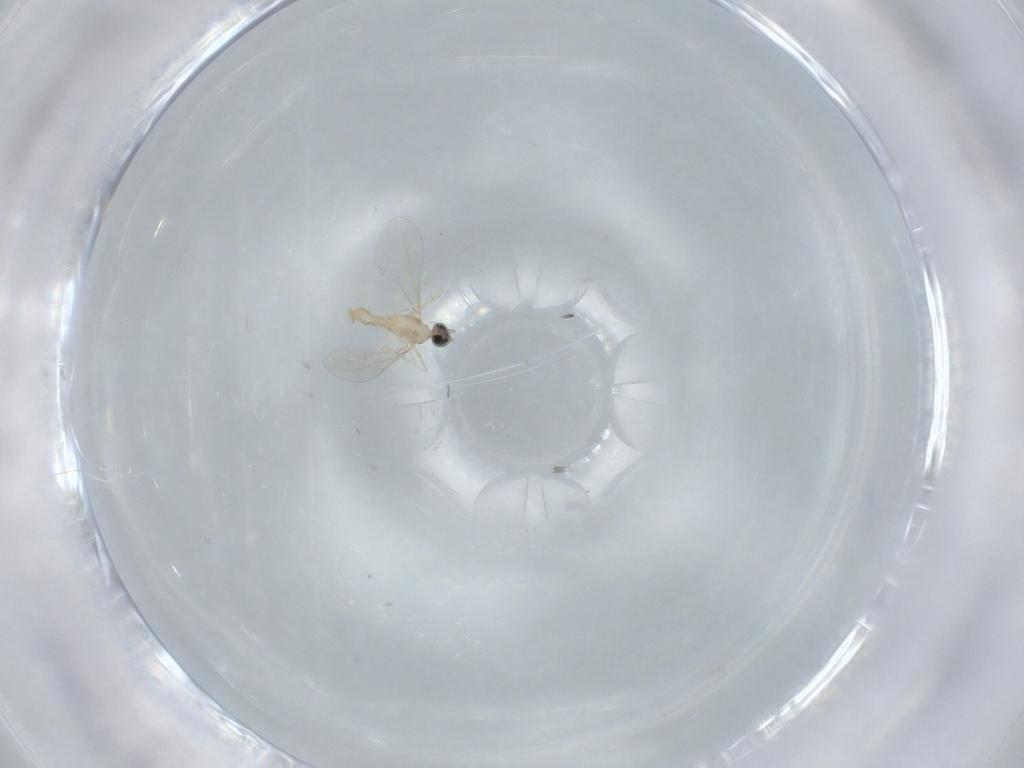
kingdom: Animalia
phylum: Arthropoda
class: Insecta
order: Diptera
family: Cecidomyiidae
